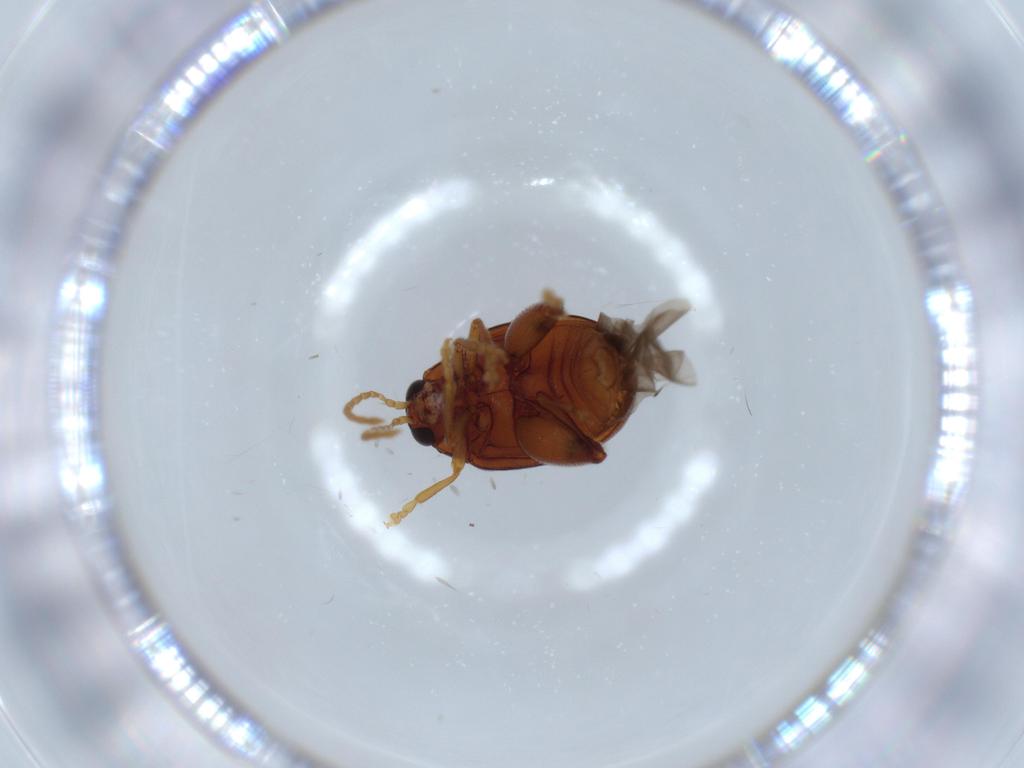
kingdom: Animalia
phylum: Arthropoda
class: Insecta
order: Coleoptera
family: Chrysomelidae
